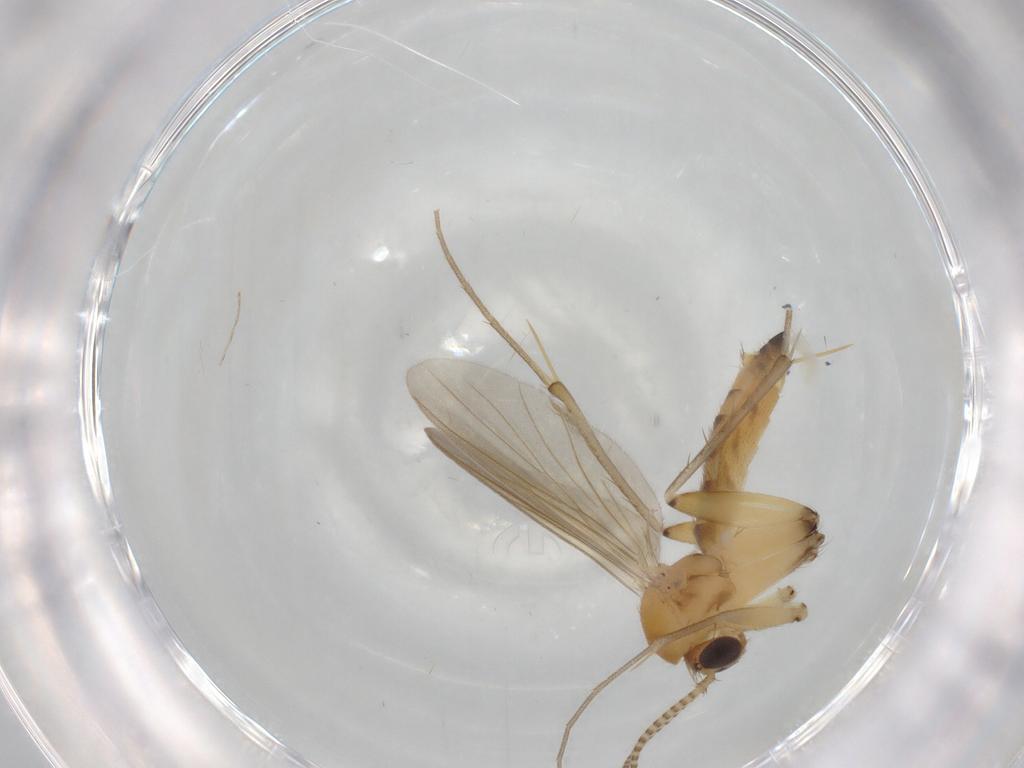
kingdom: Animalia
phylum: Arthropoda
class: Insecta
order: Diptera
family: Mycetophilidae
